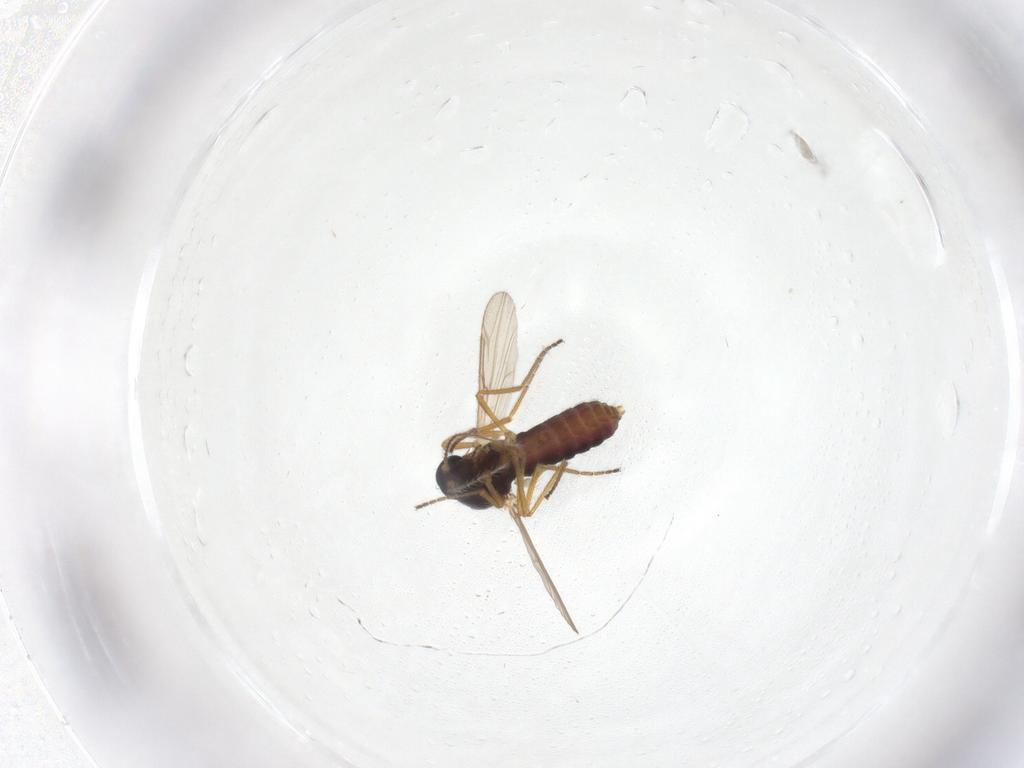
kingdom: Animalia
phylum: Arthropoda
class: Insecta
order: Diptera
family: Ceratopogonidae
